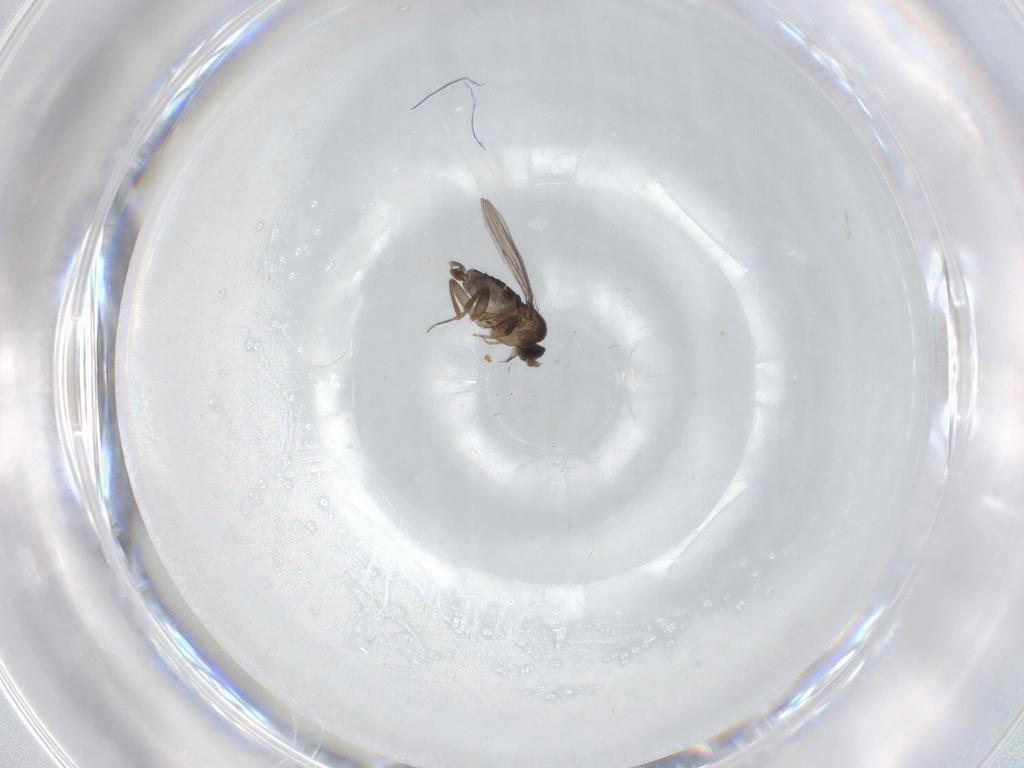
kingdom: Animalia
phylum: Arthropoda
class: Insecta
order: Diptera
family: Phoridae
